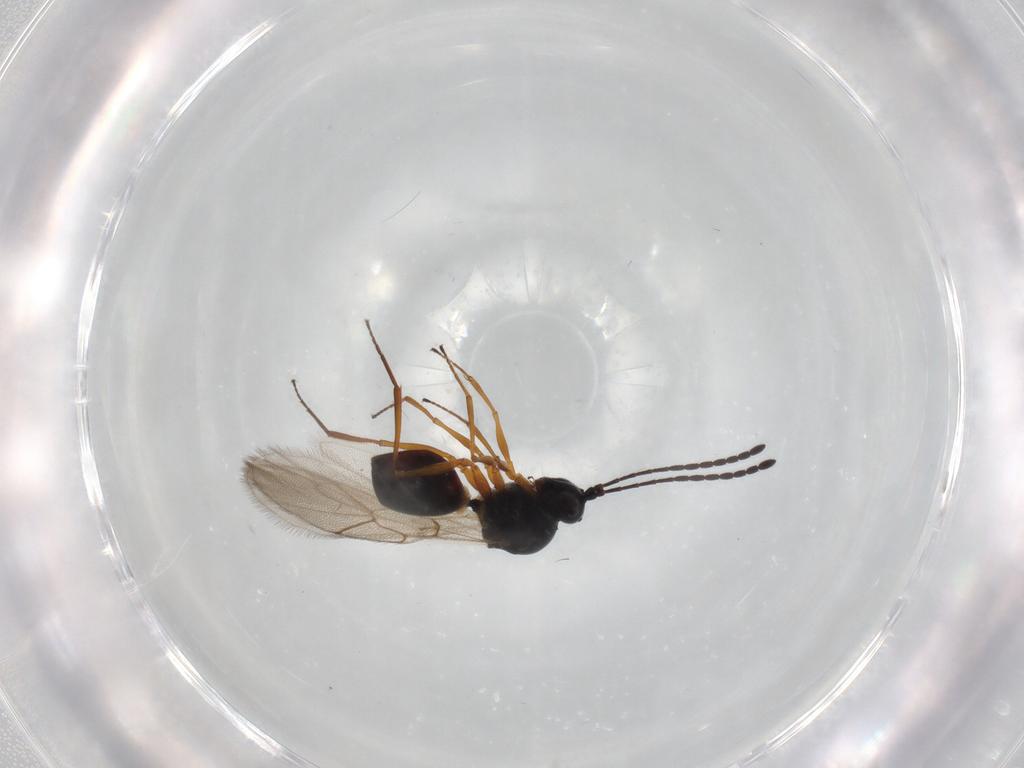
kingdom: Animalia
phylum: Arthropoda
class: Insecta
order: Hymenoptera
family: Figitidae
